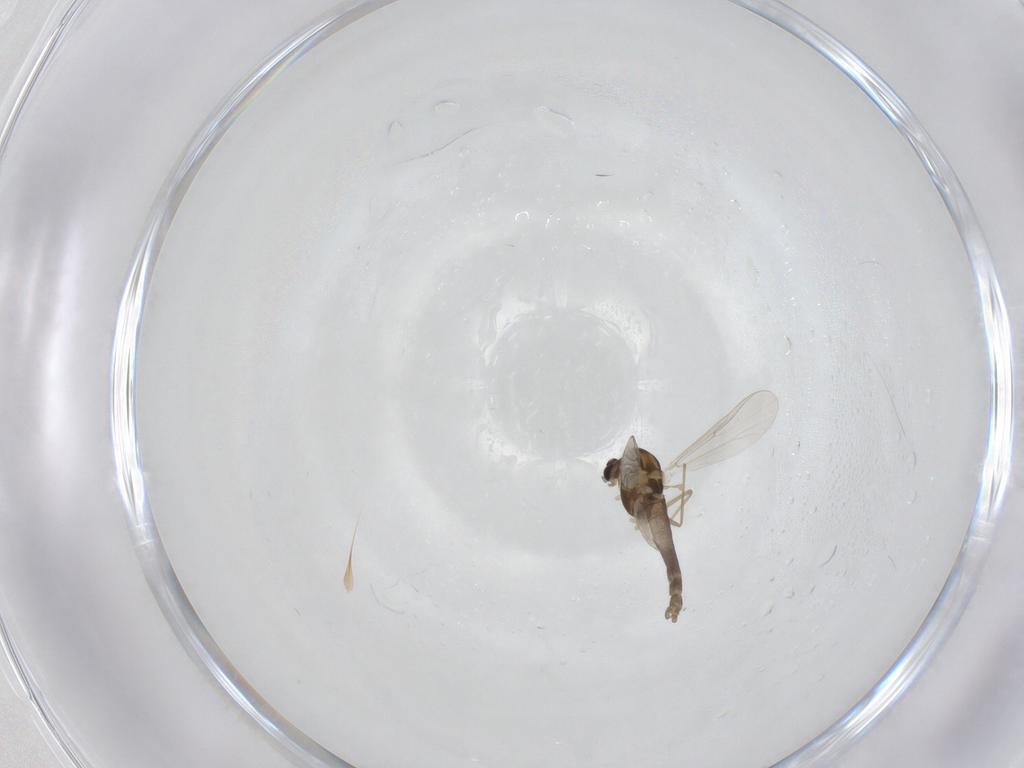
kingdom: Animalia
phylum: Arthropoda
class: Insecta
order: Diptera
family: Chironomidae
